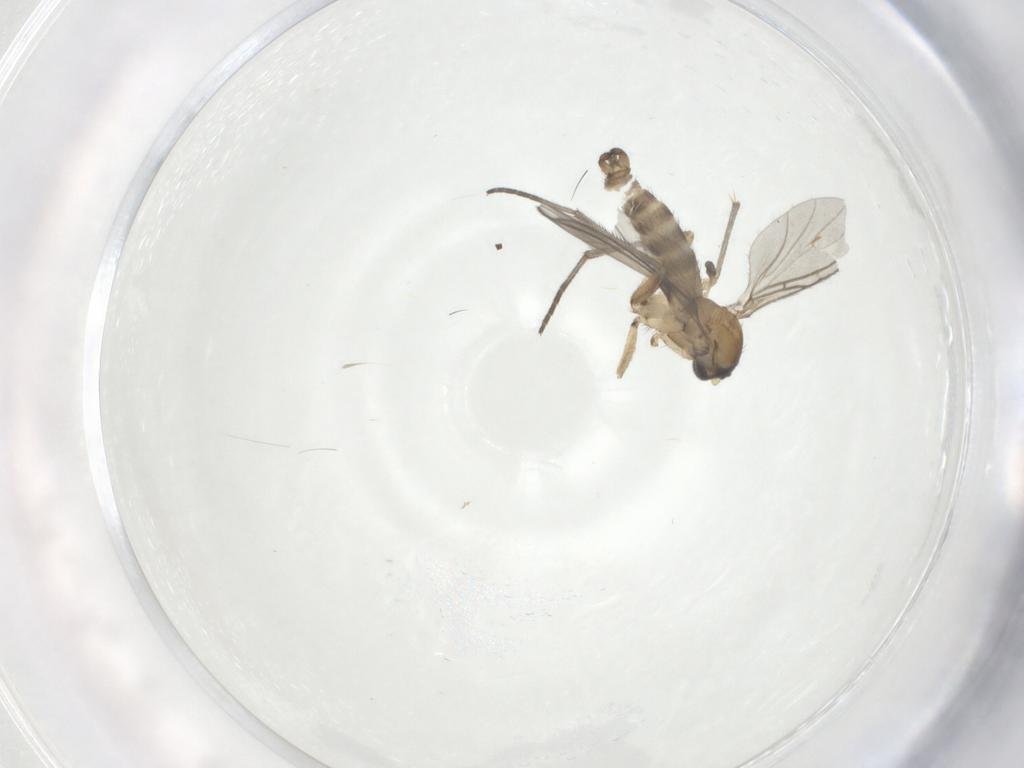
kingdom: Animalia
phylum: Arthropoda
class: Insecta
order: Diptera
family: Sciaridae
